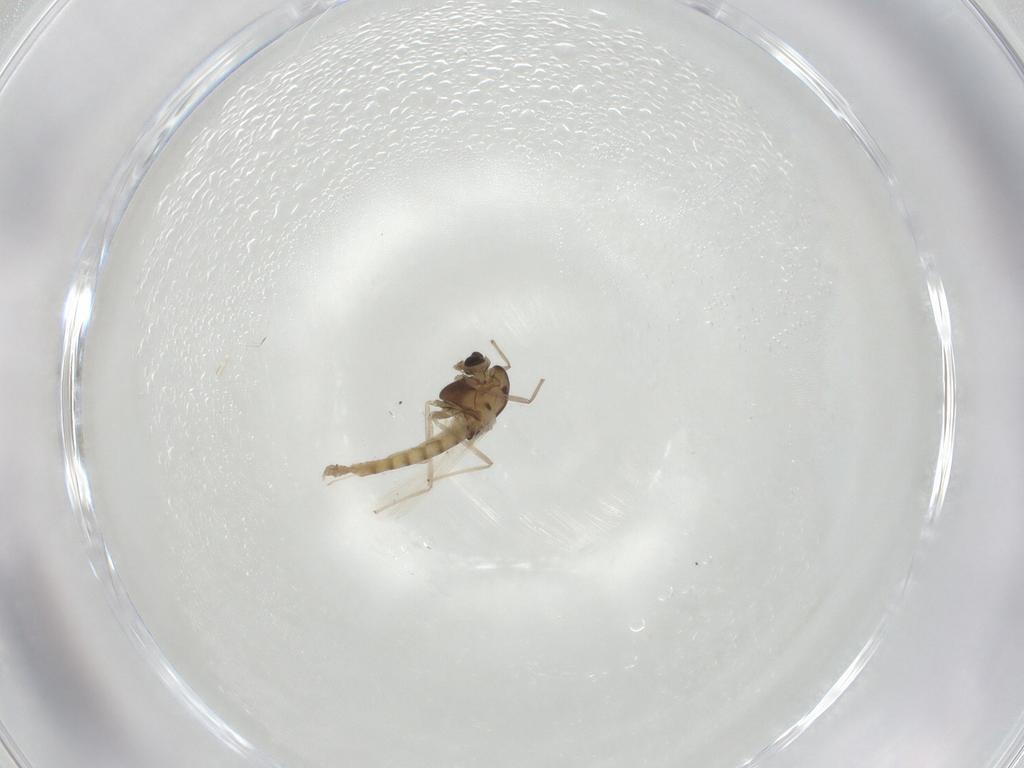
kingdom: Animalia
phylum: Arthropoda
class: Insecta
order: Diptera
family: Chironomidae
